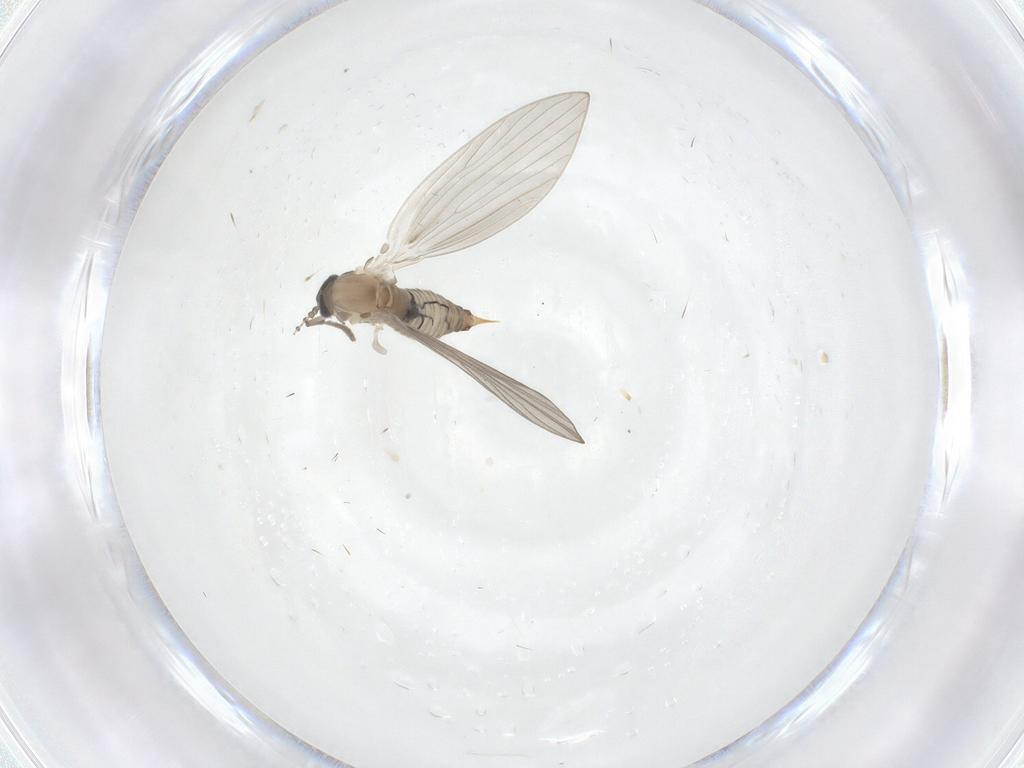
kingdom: Animalia
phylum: Arthropoda
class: Insecta
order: Diptera
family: Psychodidae
